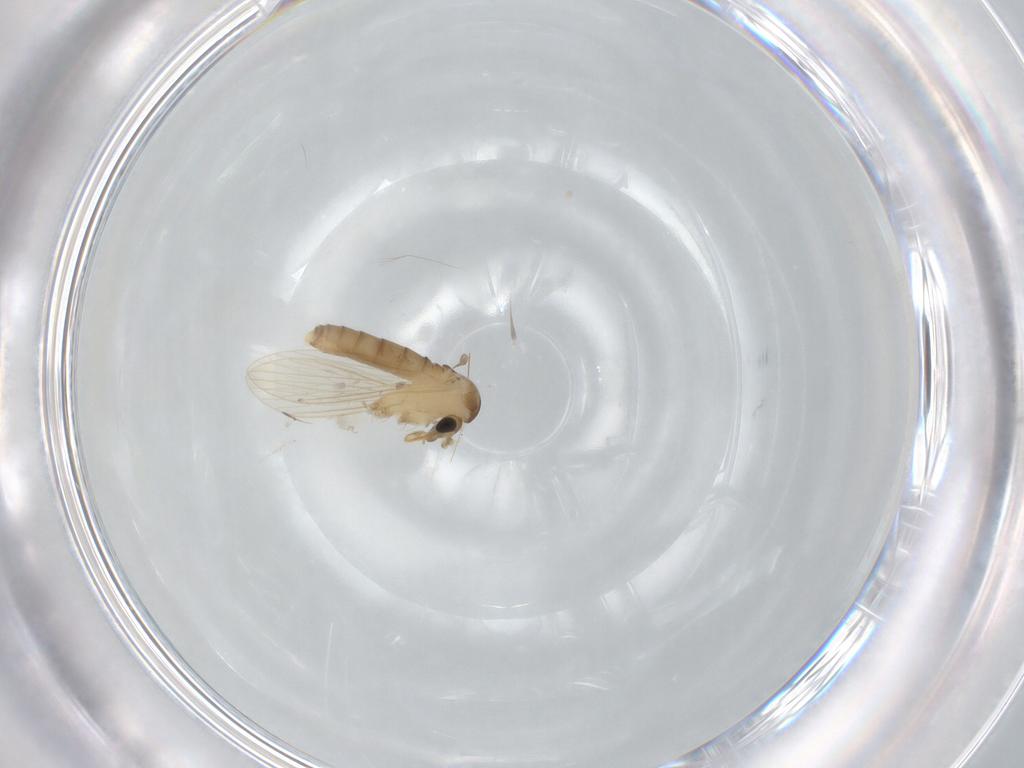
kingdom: Animalia
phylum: Arthropoda
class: Insecta
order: Diptera
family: Psychodidae
